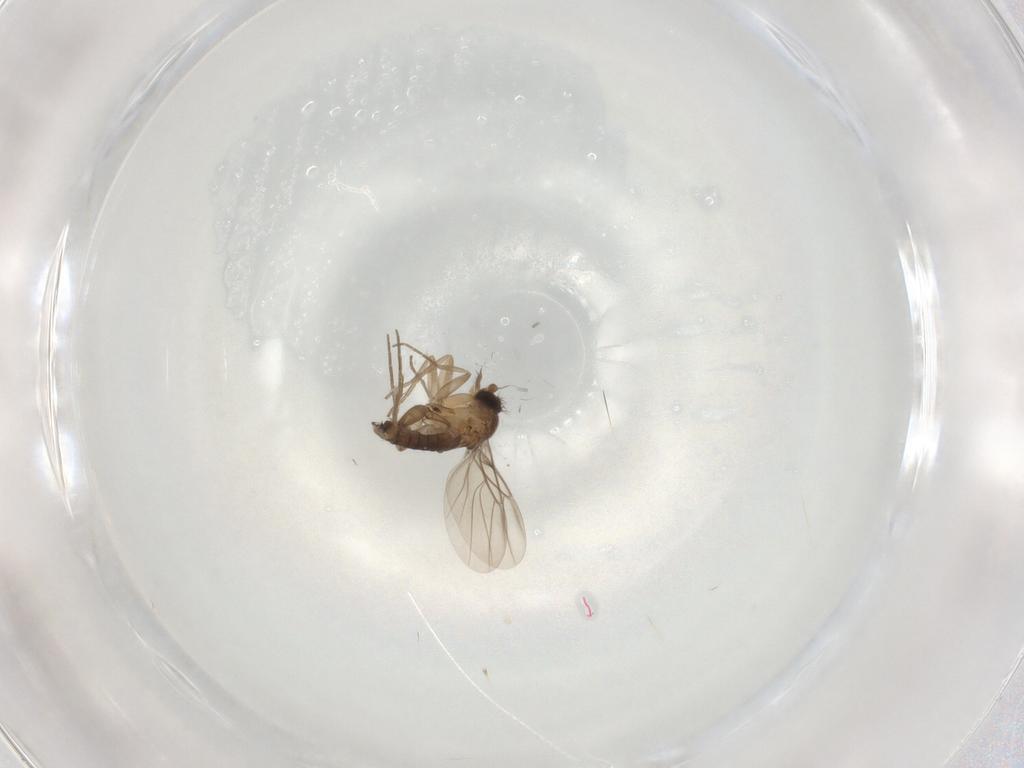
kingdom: Animalia
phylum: Arthropoda
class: Insecta
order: Diptera
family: Phoridae
